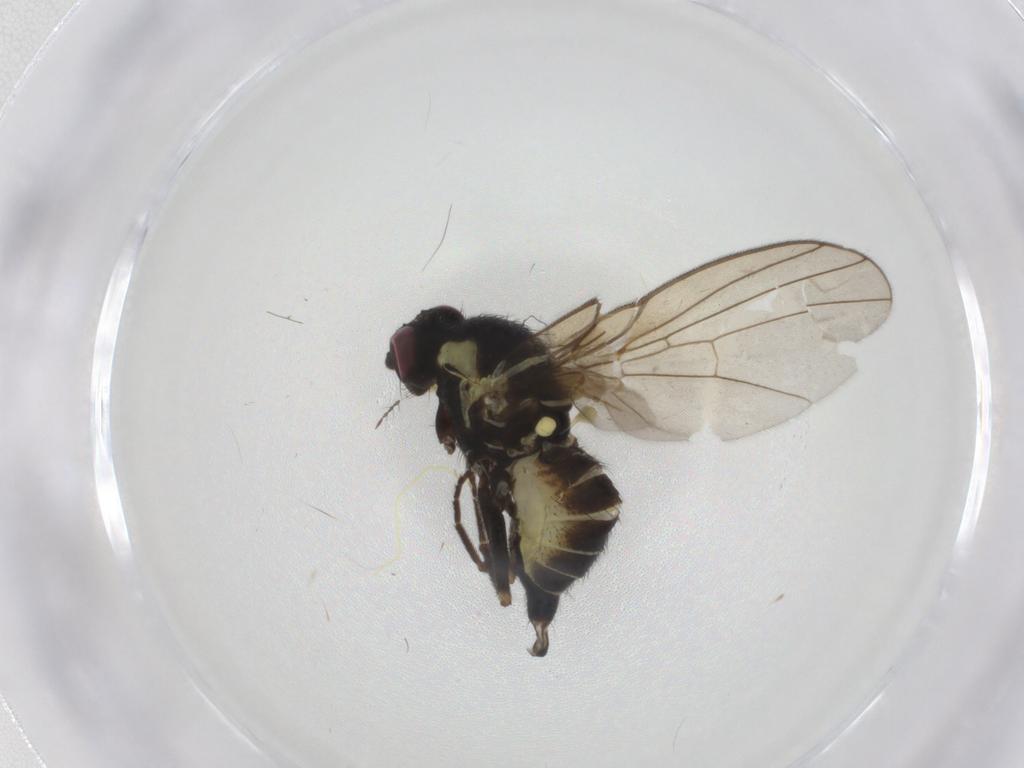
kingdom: Animalia
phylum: Arthropoda
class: Insecta
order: Diptera
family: Agromyzidae
